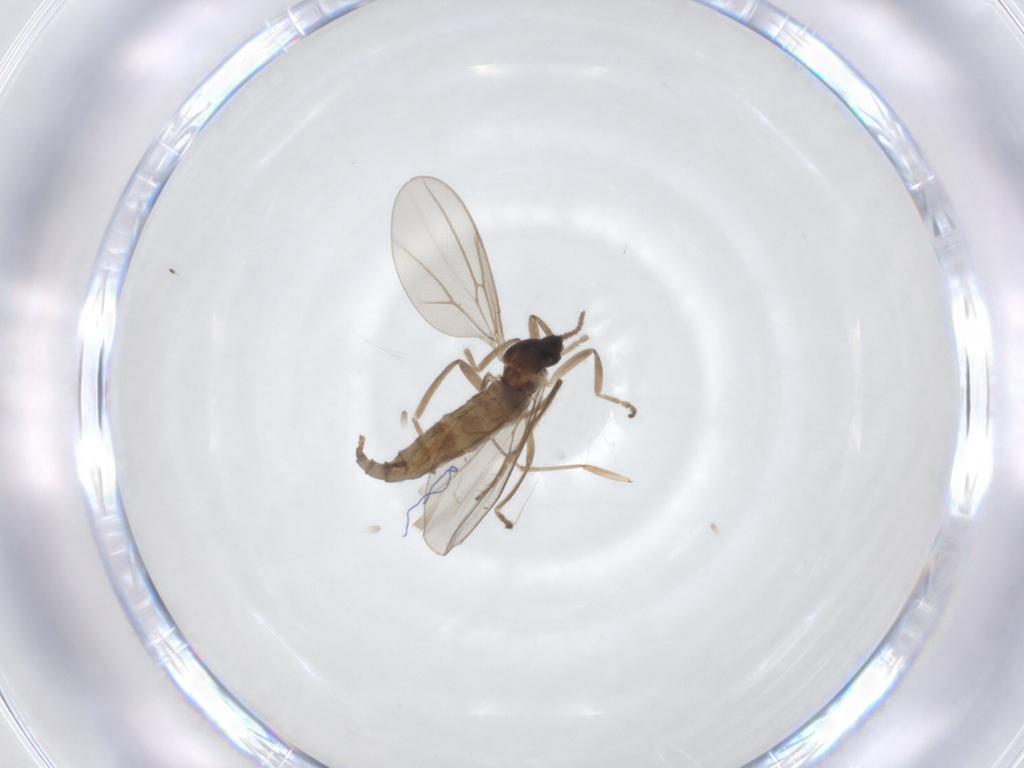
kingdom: Animalia
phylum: Arthropoda
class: Insecta
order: Diptera
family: Cecidomyiidae
